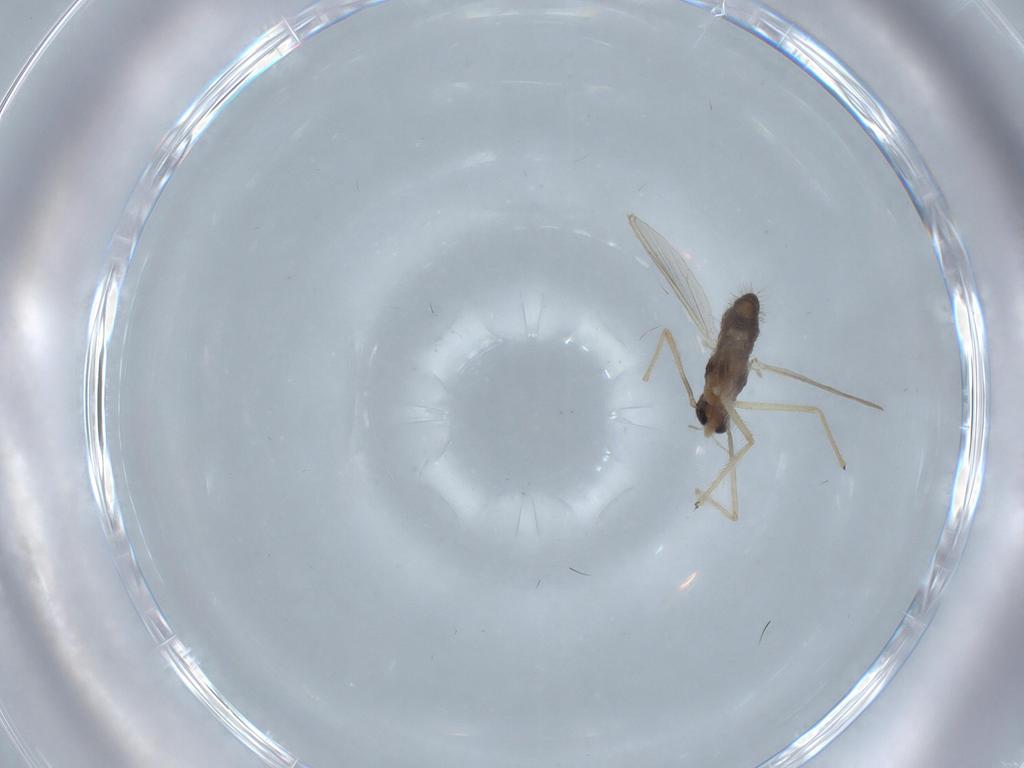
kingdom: Animalia
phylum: Arthropoda
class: Insecta
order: Diptera
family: Chironomidae
